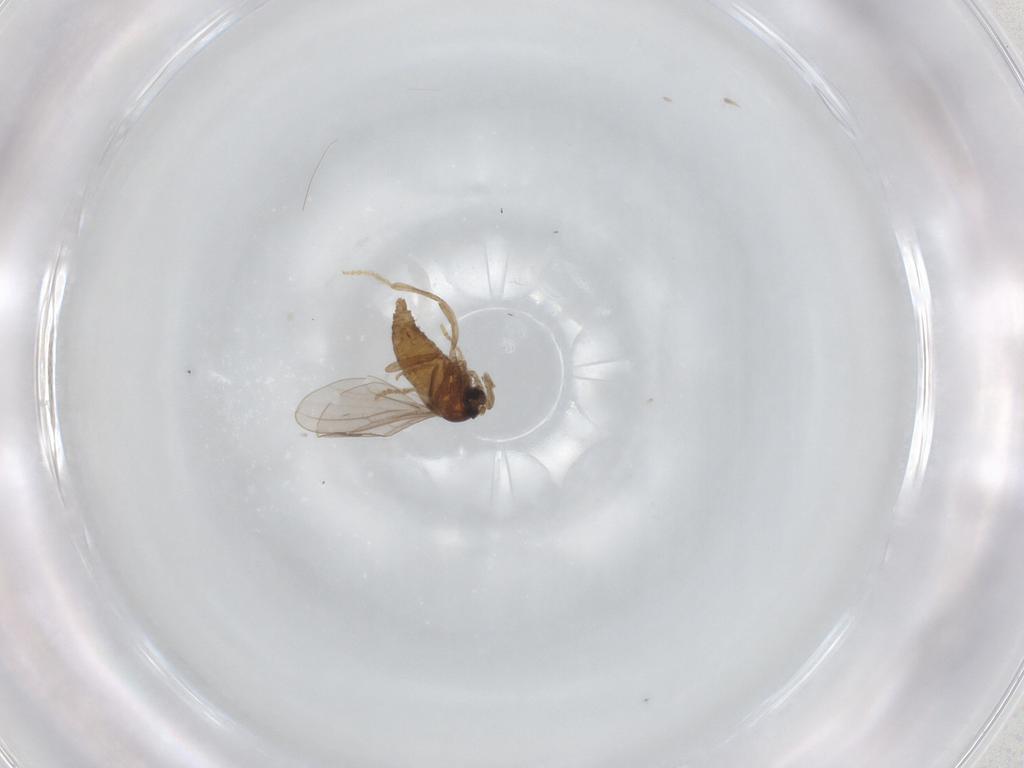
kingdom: Animalia
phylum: Arthropoda
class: Insecta
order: Diptera
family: Cecidomyiidae
